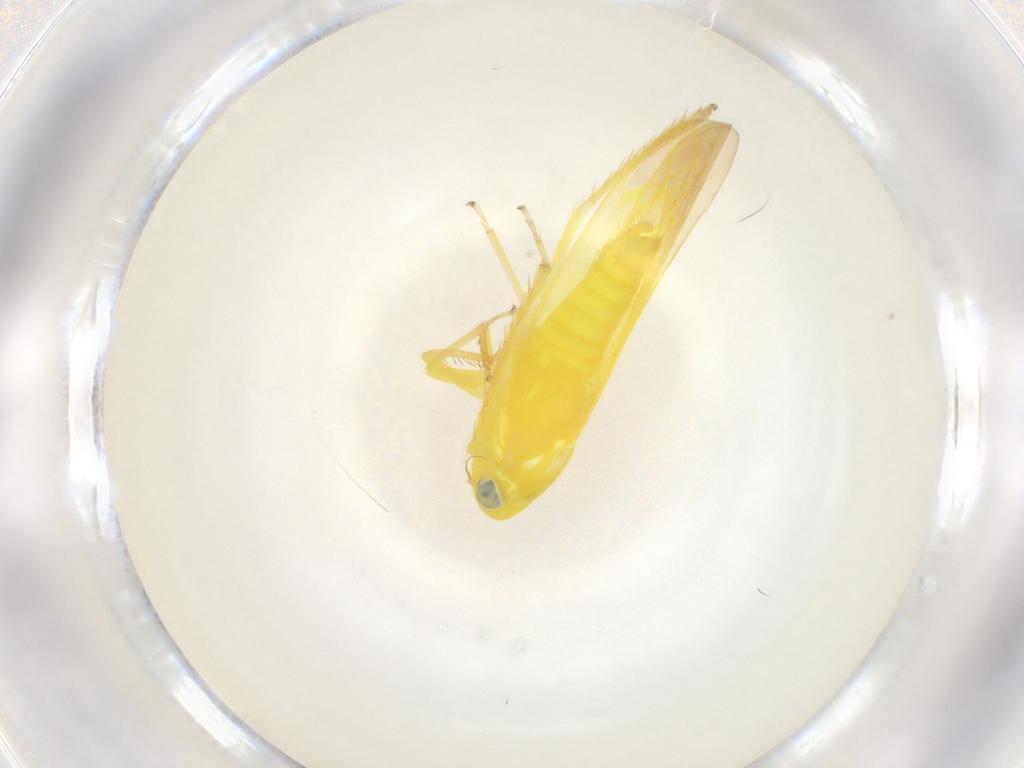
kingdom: Animalia
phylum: Arthropoda
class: Insecta
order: Hemiptera
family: Cicadellidae
